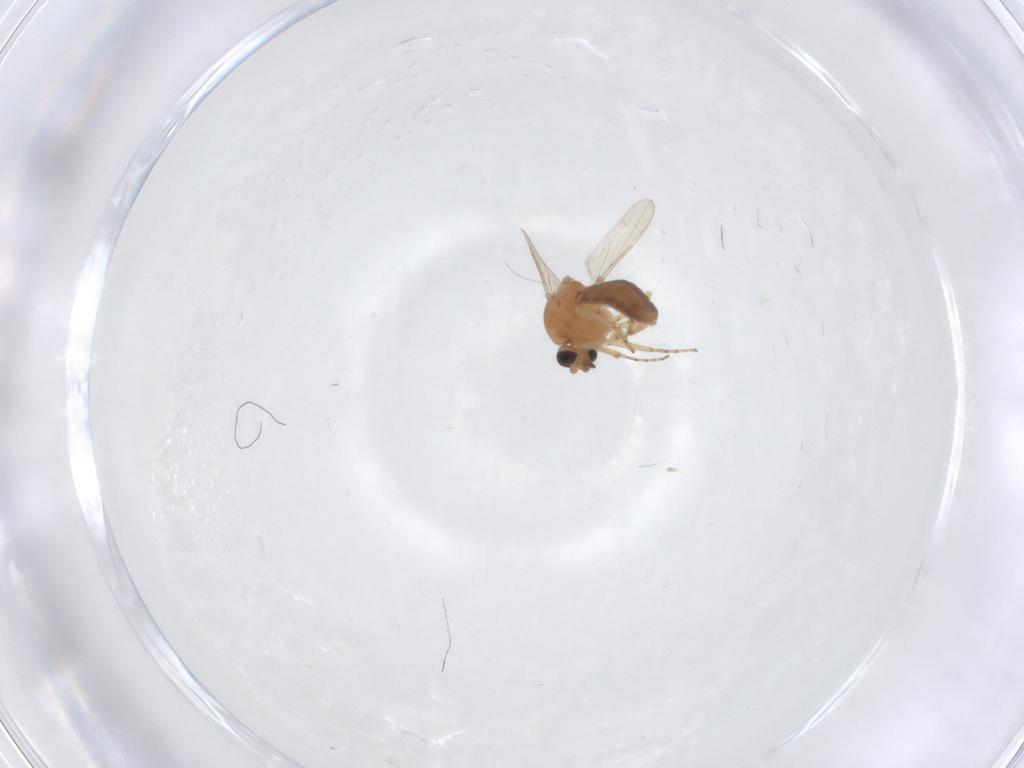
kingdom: Animalia
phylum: Arthropoda
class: Insecta
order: Diptera
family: Ceratopogonidae
